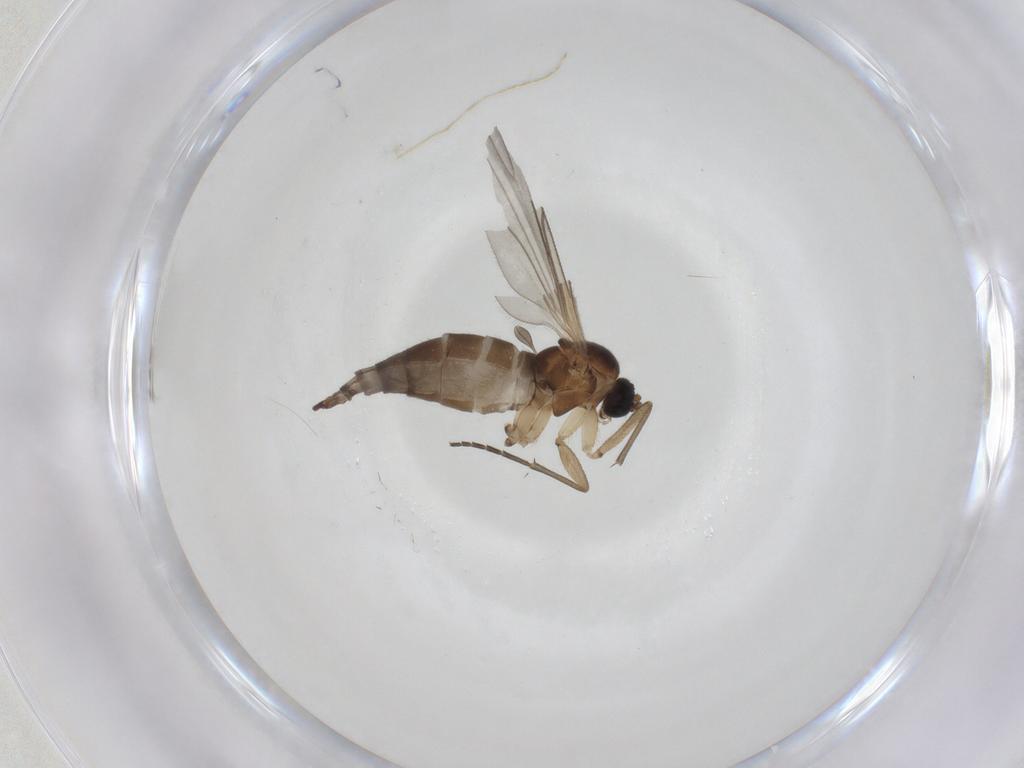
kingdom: Animalia
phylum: Arthropoda
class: Insecta
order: Diptera
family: Sciaridae
